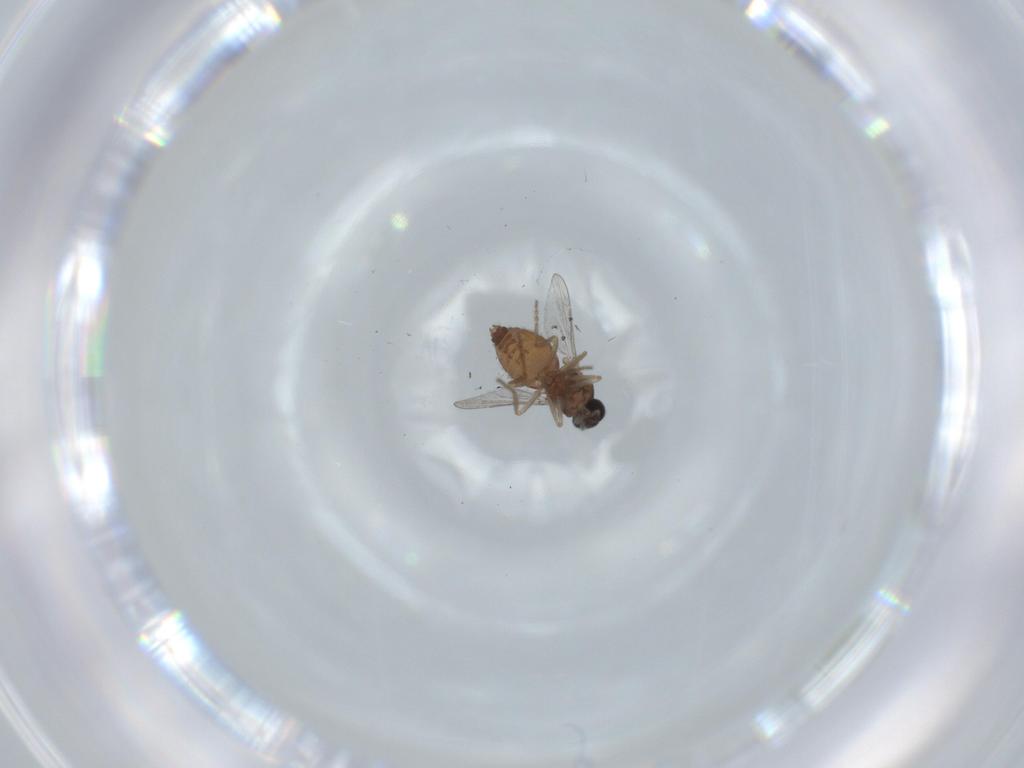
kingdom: Animalia
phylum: Arthropoda
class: Insecta
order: Diptera
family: Ceratopogonidae
